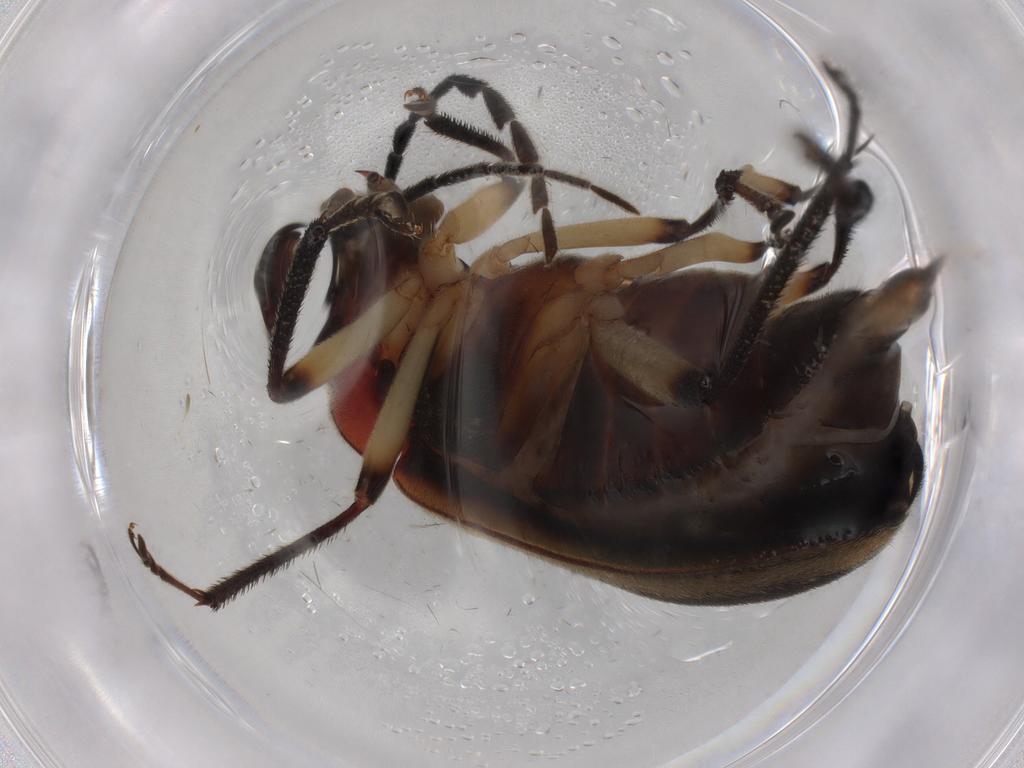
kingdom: Animalia
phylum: Arthropoda
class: Insecta
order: Coleoptera
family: Ptilodactylidae
